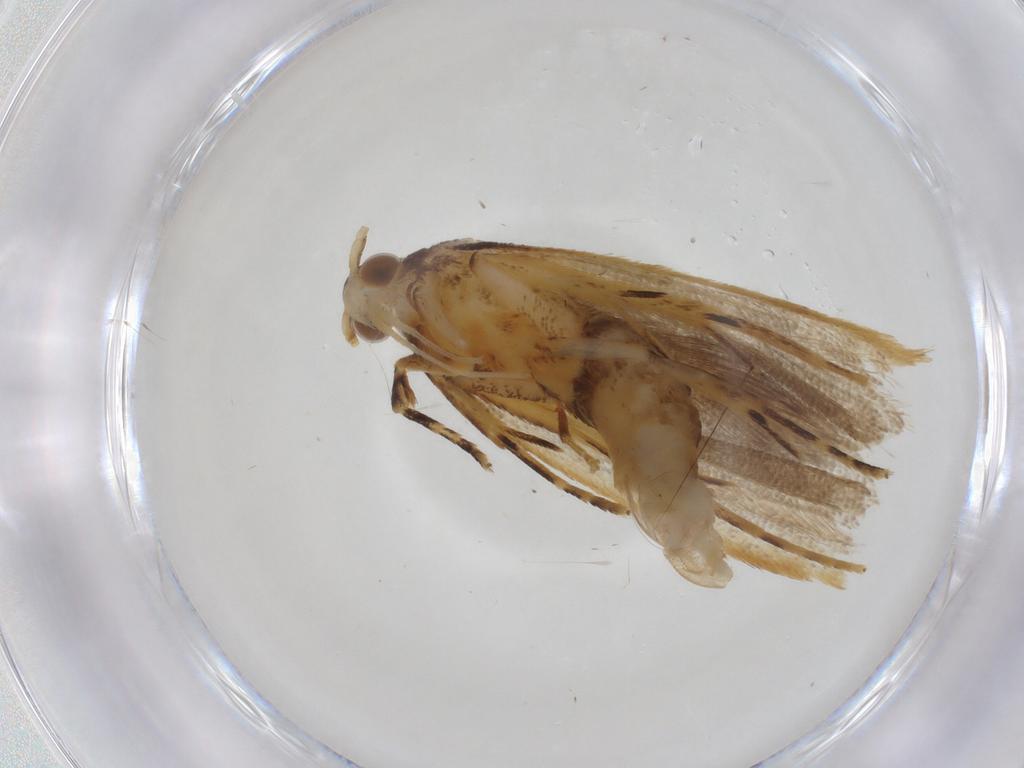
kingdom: Animalia
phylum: Arthropoda
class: Insecta
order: Lepidoptera
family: Lecithoceridae
